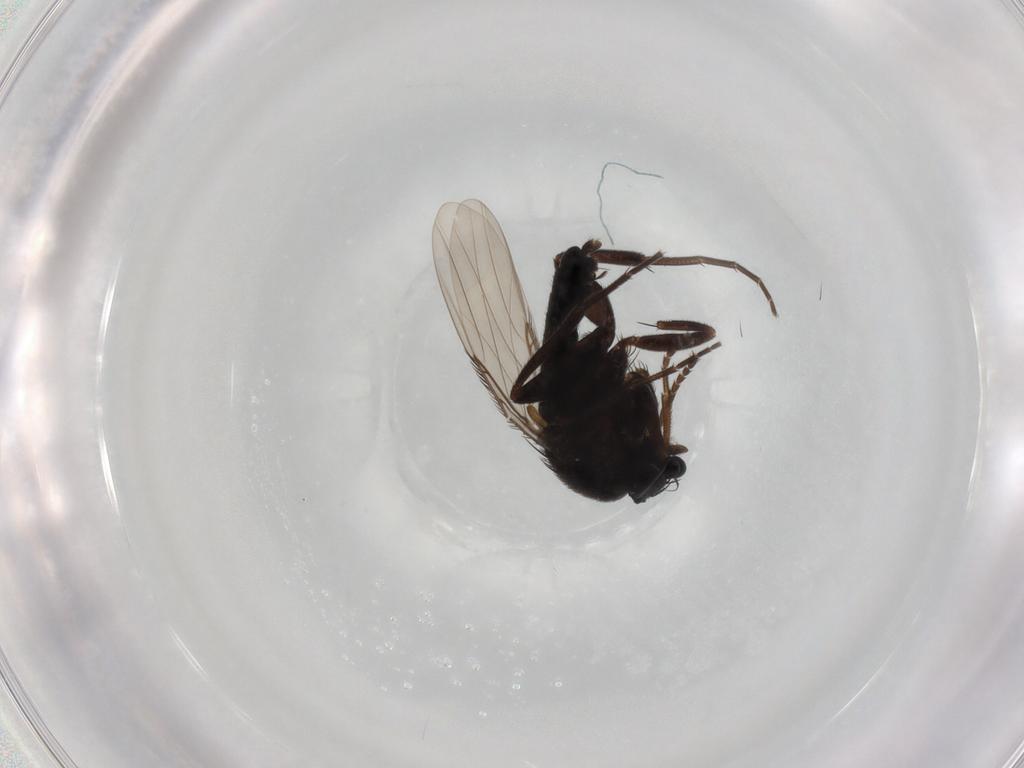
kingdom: Animalia
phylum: Arthropoda
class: Insecta
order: Diptera
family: Phoridae
